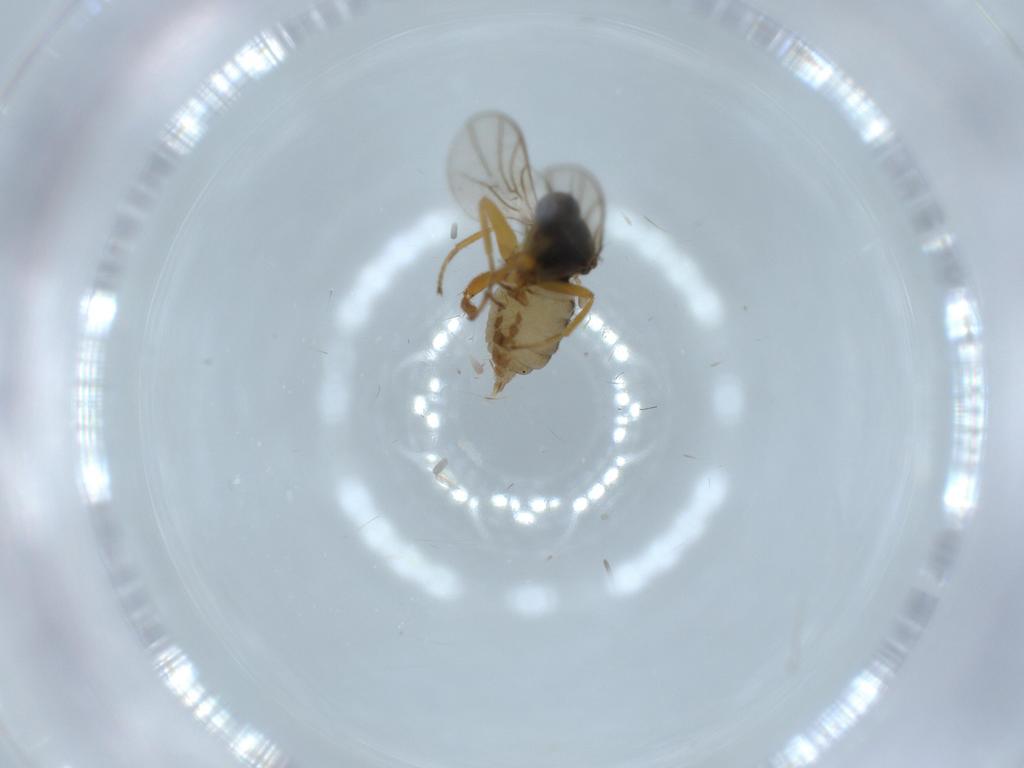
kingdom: Animalia
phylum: Arthropoda
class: Insecta
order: Diptera
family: Hybotidae
